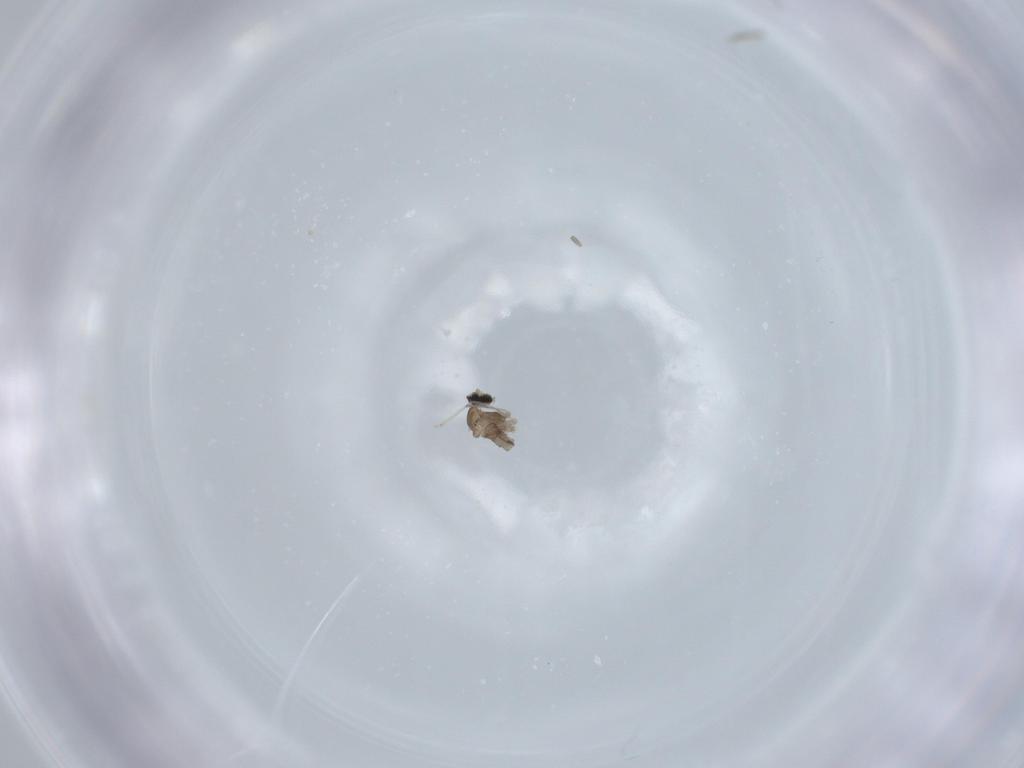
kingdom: Animalia
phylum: Arthropoda
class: Insecta
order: Diptera
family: Cecidomyiidae
